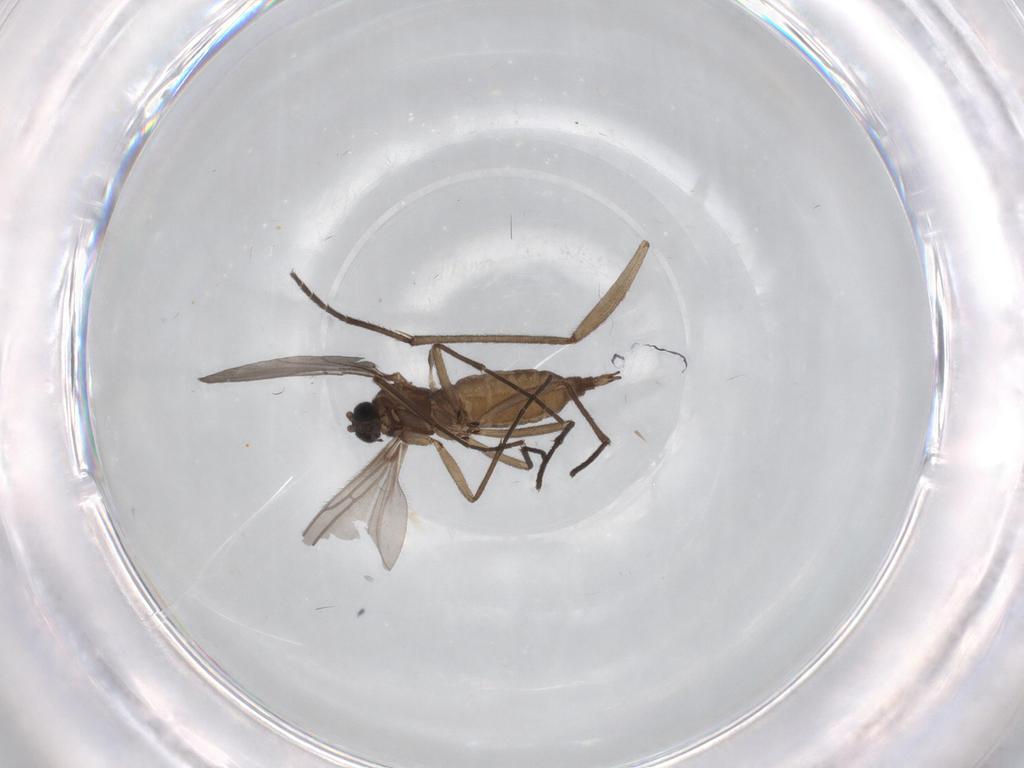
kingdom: Animalia
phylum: Arthropoda
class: Insecta
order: Diptera
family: Sciaridae
